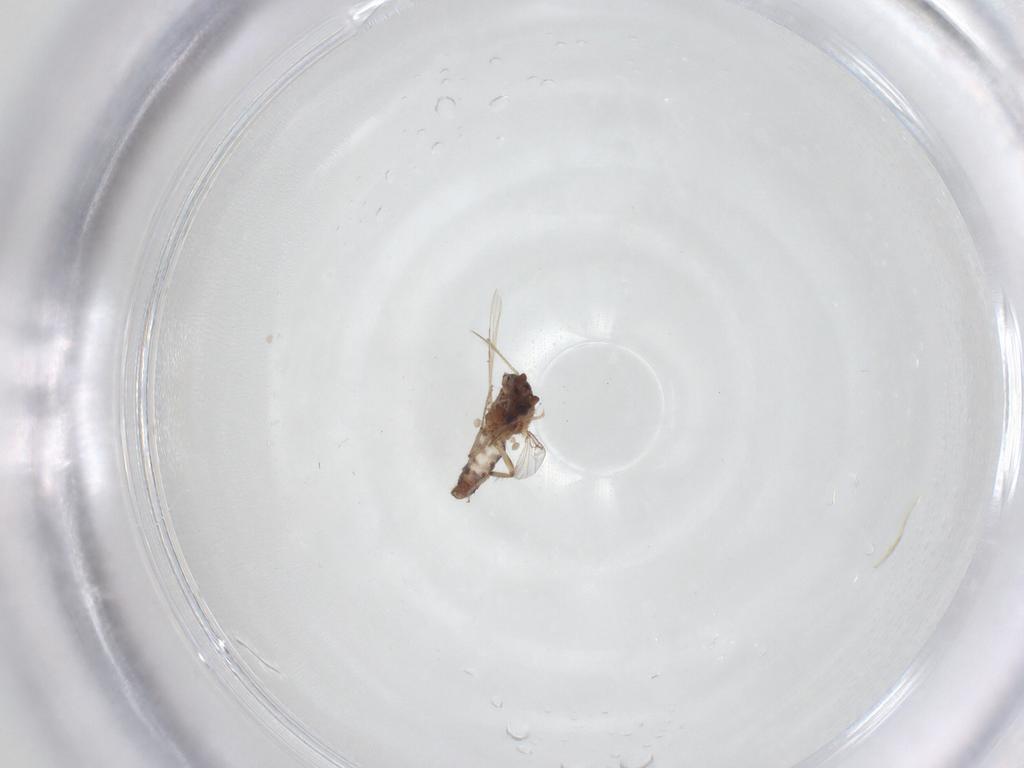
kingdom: Animalia
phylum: Arthropoda
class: Insecta
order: Diptera
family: Ceratopogonidae
